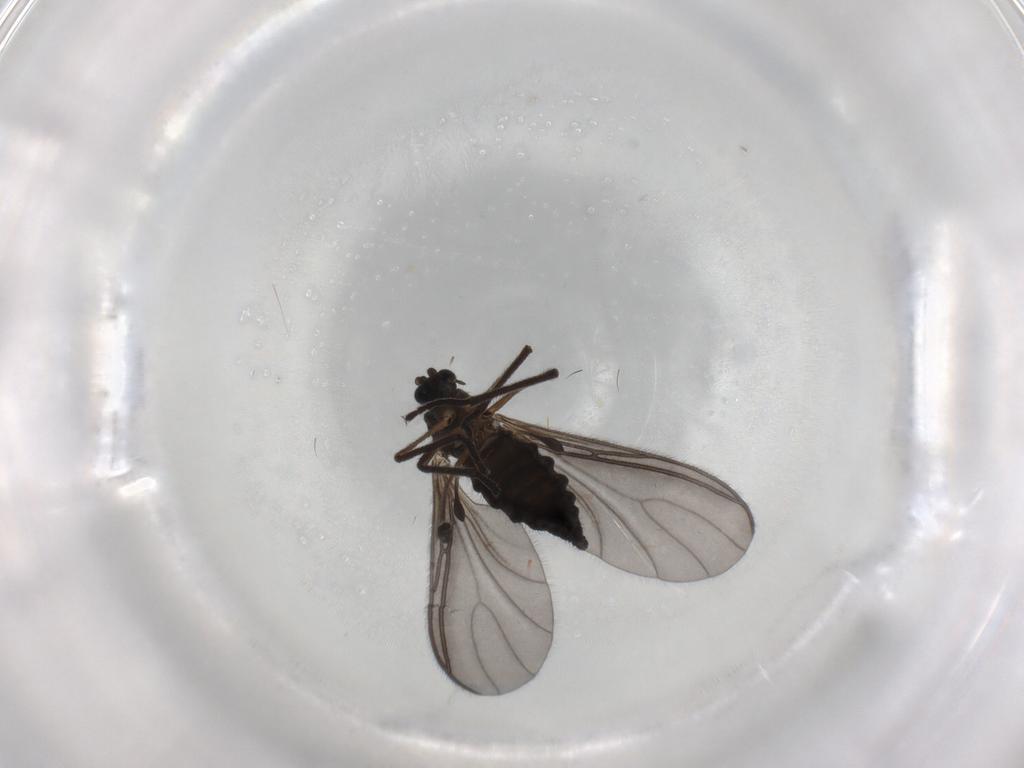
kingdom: Animalia
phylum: Arthropoda
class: Insecta
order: Diptera
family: Sciaridae
